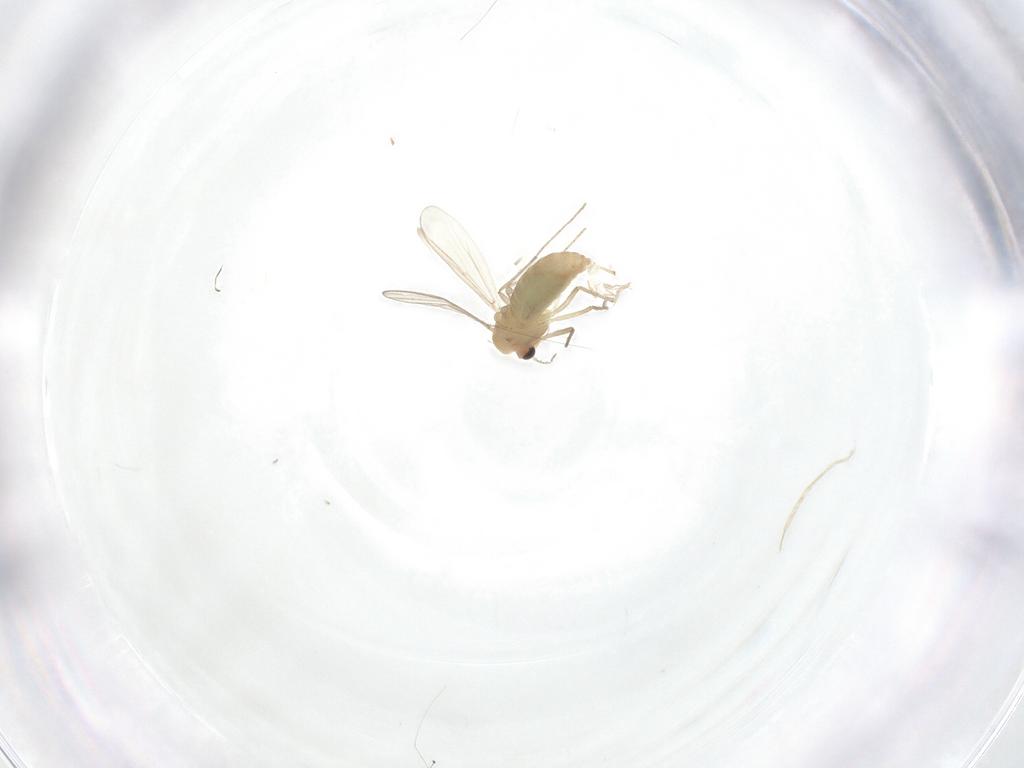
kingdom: Animalia
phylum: Arthropoda
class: Insecta
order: Diptera
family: Chironomidae
